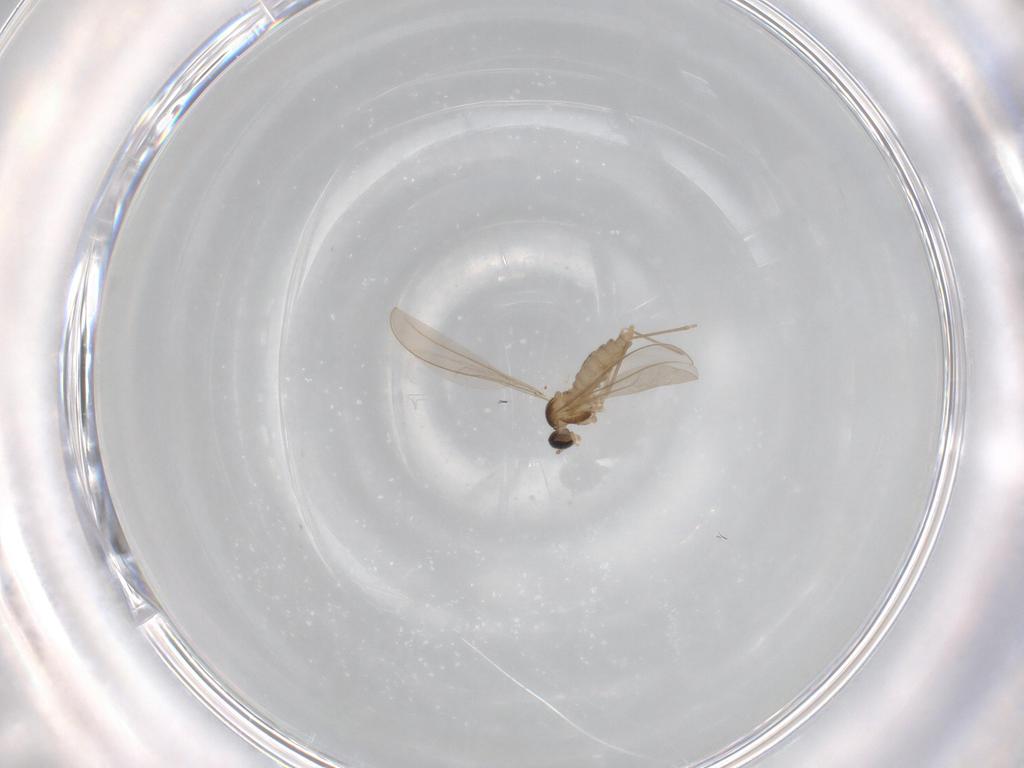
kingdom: Animalia
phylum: Arthropoda
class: Insecta
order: Diptera
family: Cecidomyiidae
